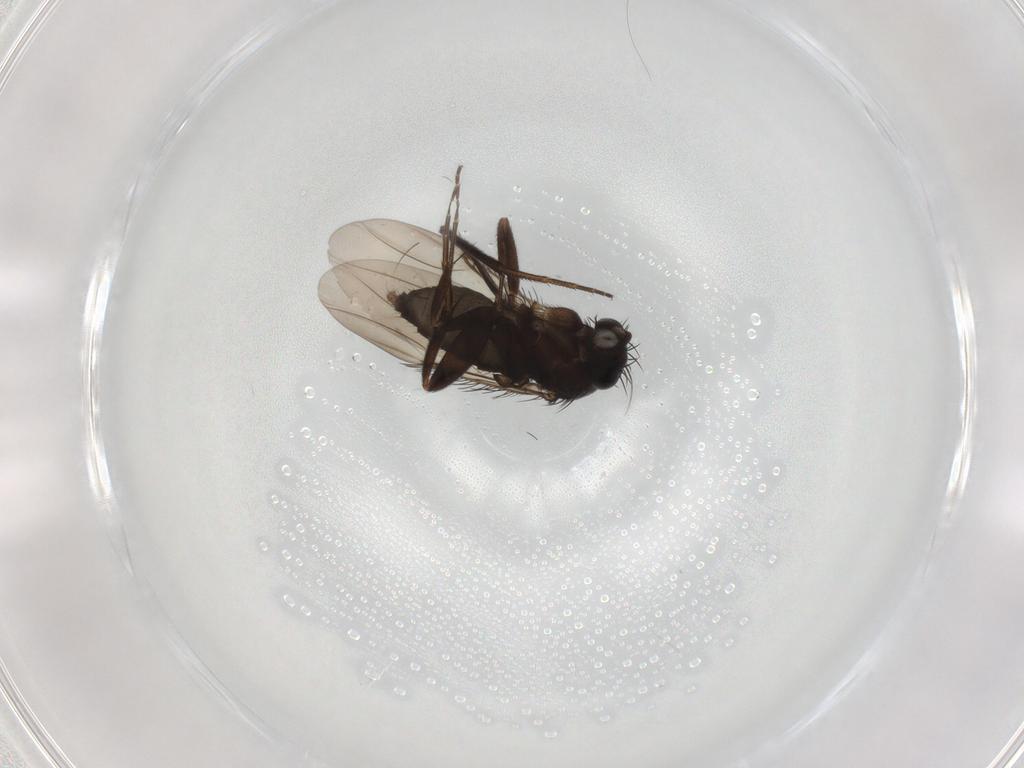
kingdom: Animalia
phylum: Arthropoda
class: Insecta
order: Diptera
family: Phoridae
